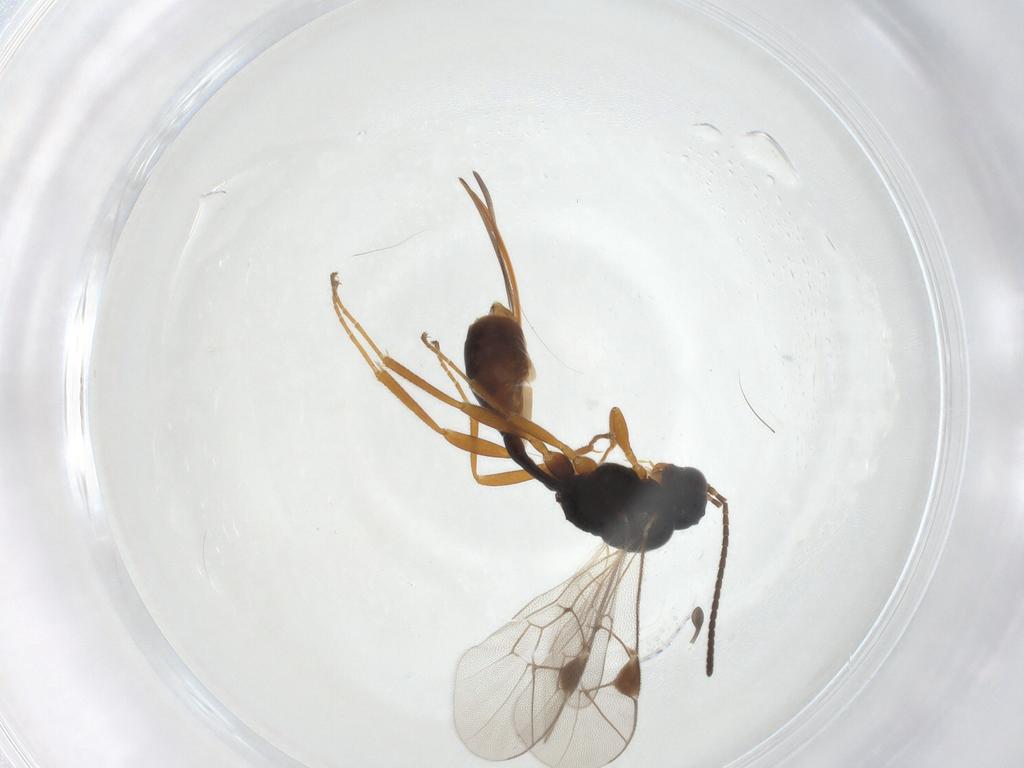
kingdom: Animalia
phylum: Arthropoda
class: Insecta
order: Hymenoptera
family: Ichneumonidae
